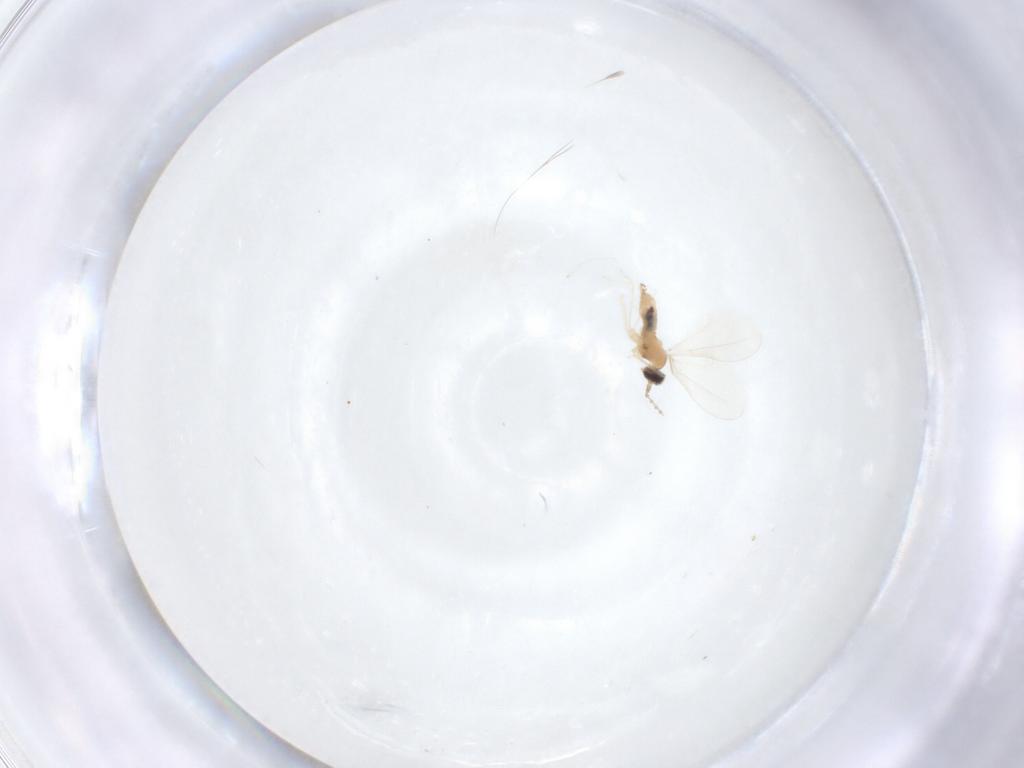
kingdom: Animalia
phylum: Arthropoda
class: Insecta
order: Diptera
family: Cecidomyiidae
